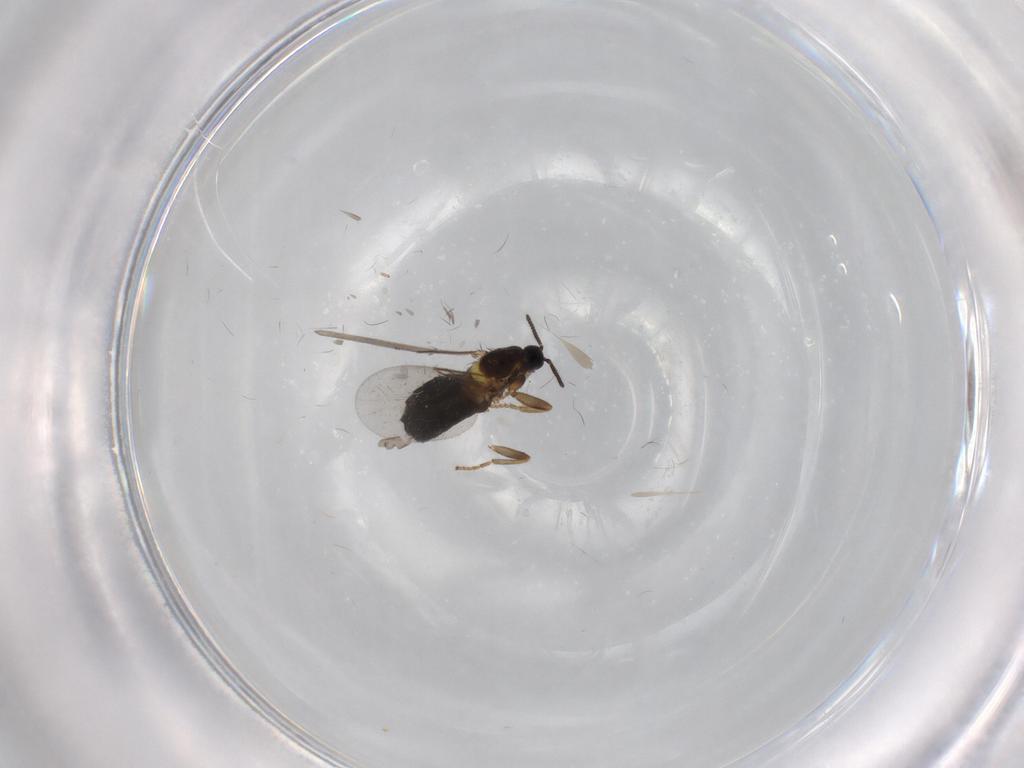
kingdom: Animalia
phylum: Arthropoda
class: Insecta
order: Diptera
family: Scatopsidae
